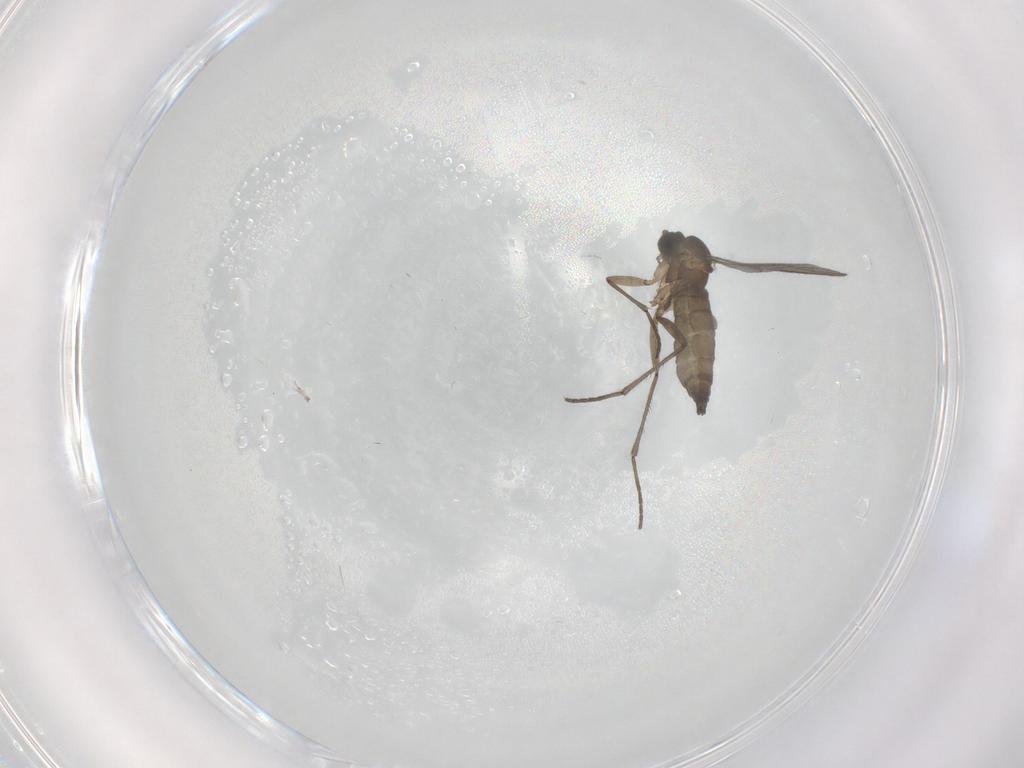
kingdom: Animalia
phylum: Arthropoda
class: Insecta
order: Diptera
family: Sciaridae
